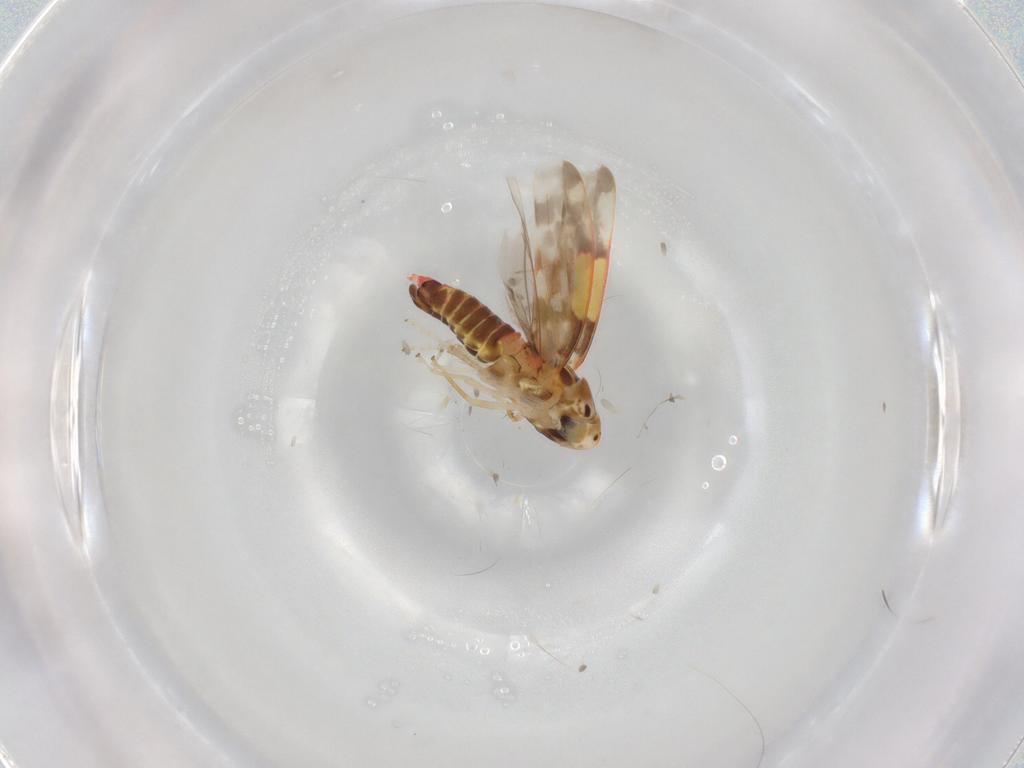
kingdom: Animalia
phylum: Arthropoda
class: Insecta
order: Hemiptera
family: Cicadellidae
